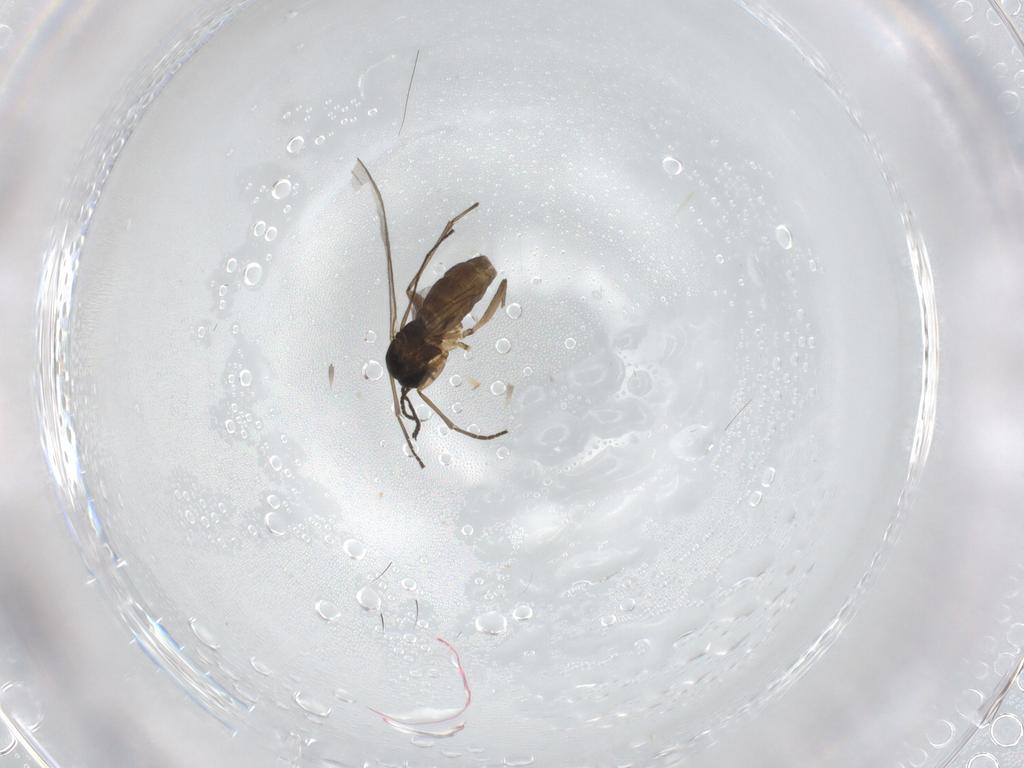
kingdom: Animalia
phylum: Arthropoda
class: Insecta
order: Diptera
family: Sciaridae
